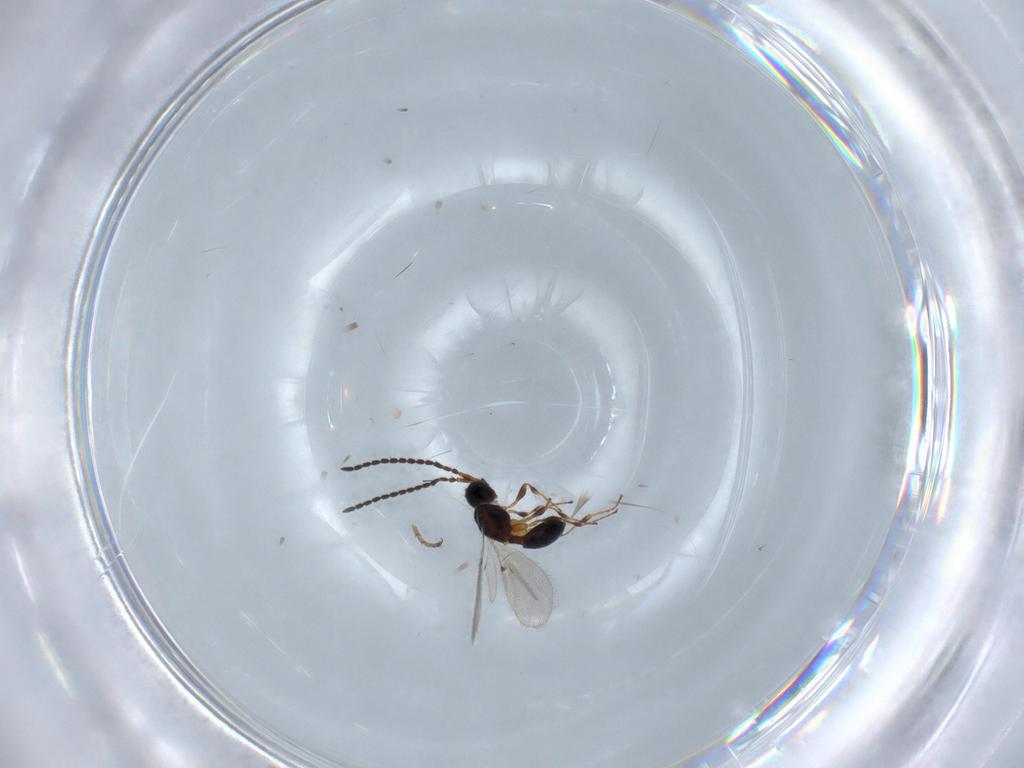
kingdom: Animalia
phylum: Arthropoda
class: Insecta
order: Hymenoptera
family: Diapriidae
